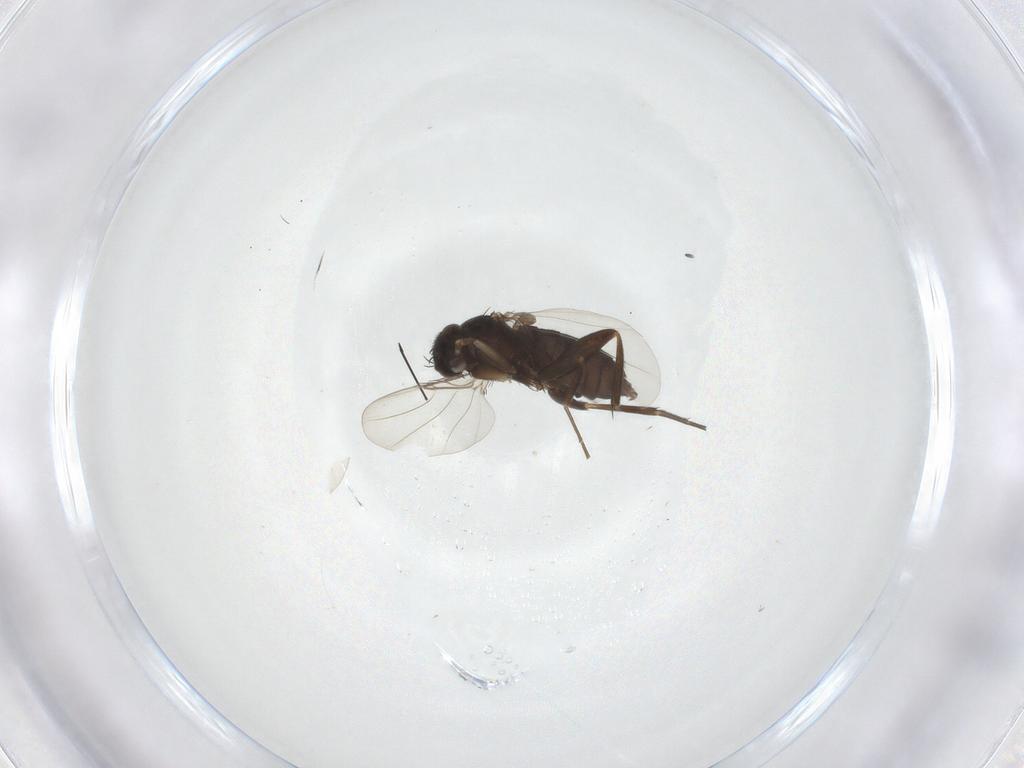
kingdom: Animalia
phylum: Arthropoda
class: Insecta
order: Diptera
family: Phoridae
